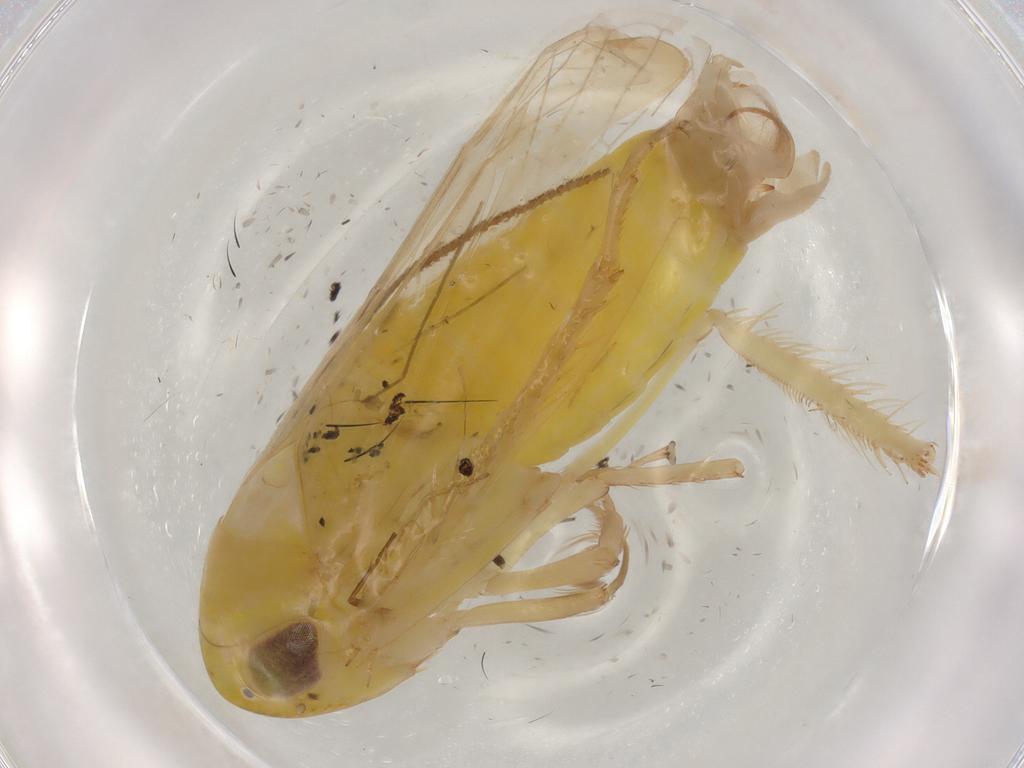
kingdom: Animalia
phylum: Arthropoda
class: Insecta
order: Hemiptera
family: Cicadellidae
